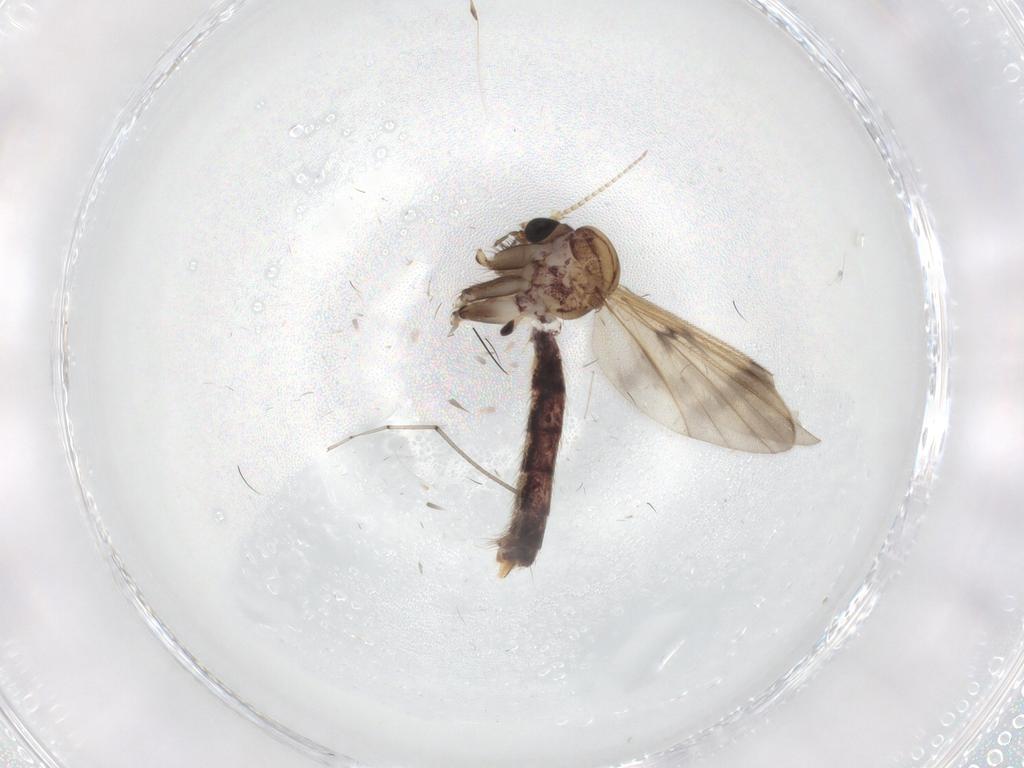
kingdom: Animalia
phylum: Arthropoda
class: Insecta
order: Diptera
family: Sciaridae
